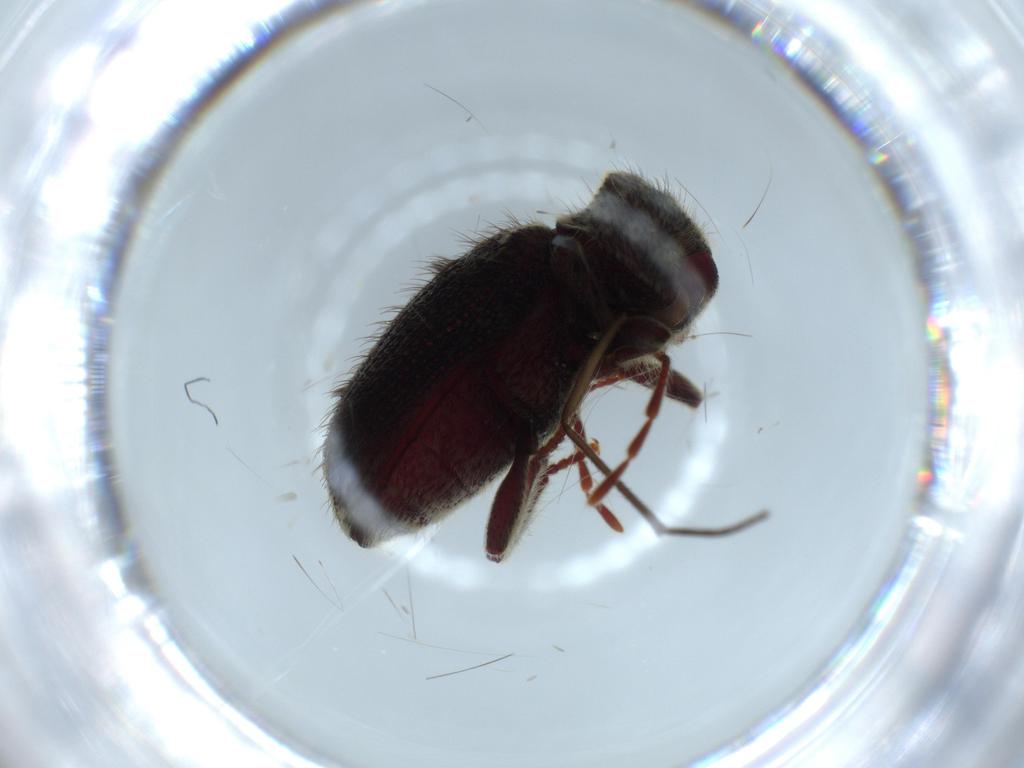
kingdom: Animalia
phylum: Arthropoda
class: Insecta
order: Coleoptera
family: Ptinidae
